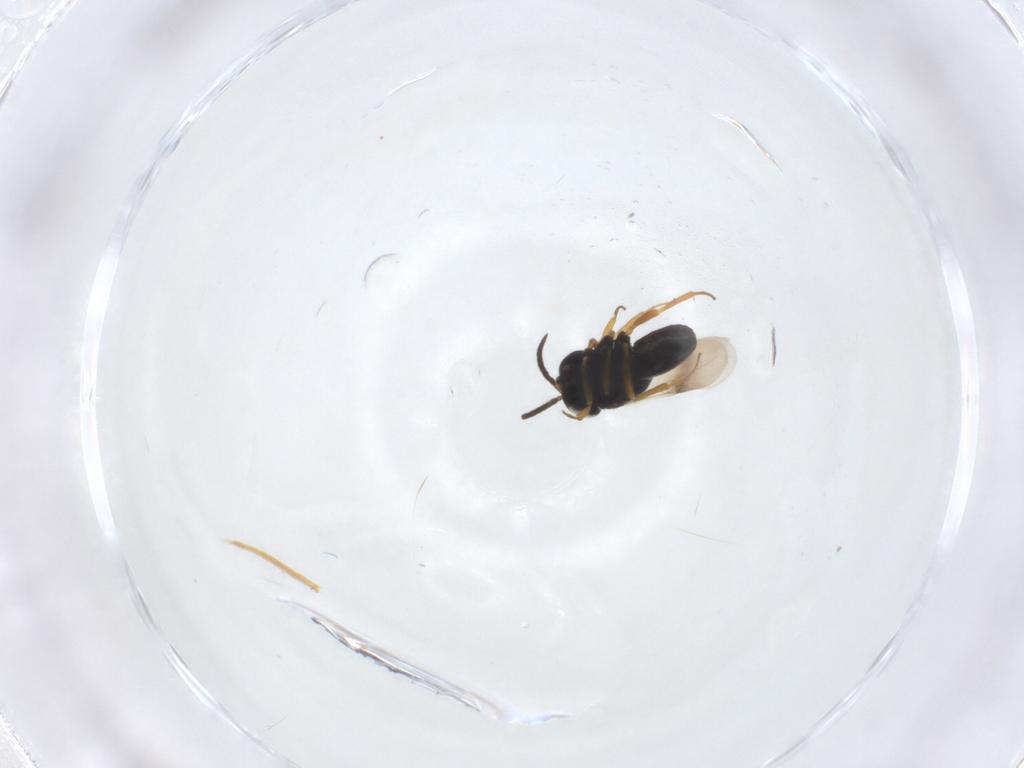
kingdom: Animalia
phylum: Arthropoda
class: Insecta
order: Hymenoptera
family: Scelionidae
